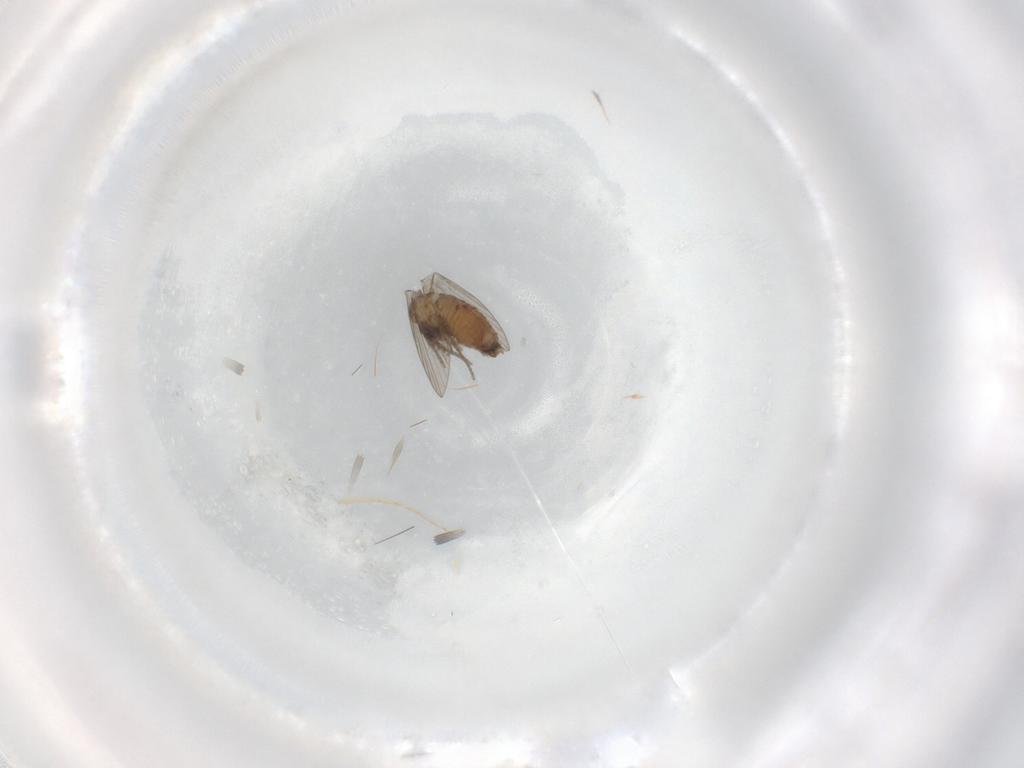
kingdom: Animalia
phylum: Arthropoda
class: Insecta
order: Diptera
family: Psychodidae
